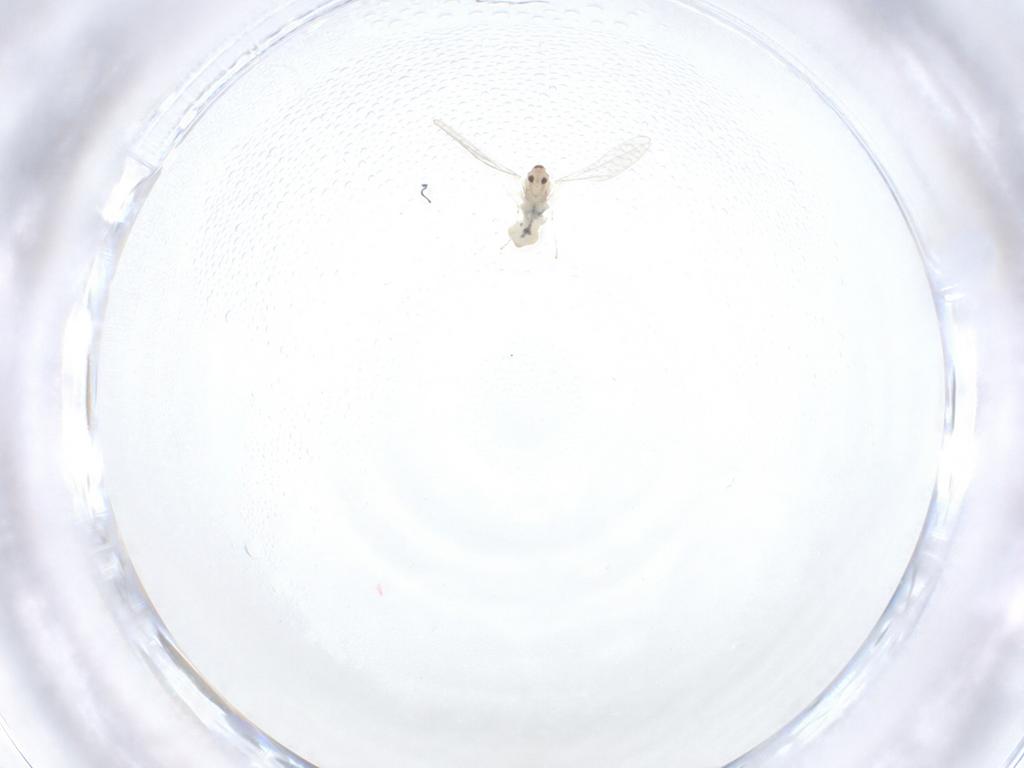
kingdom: Animalia
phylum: Arthropoda
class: Insecta
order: Diptera
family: Cecidomyiidae
